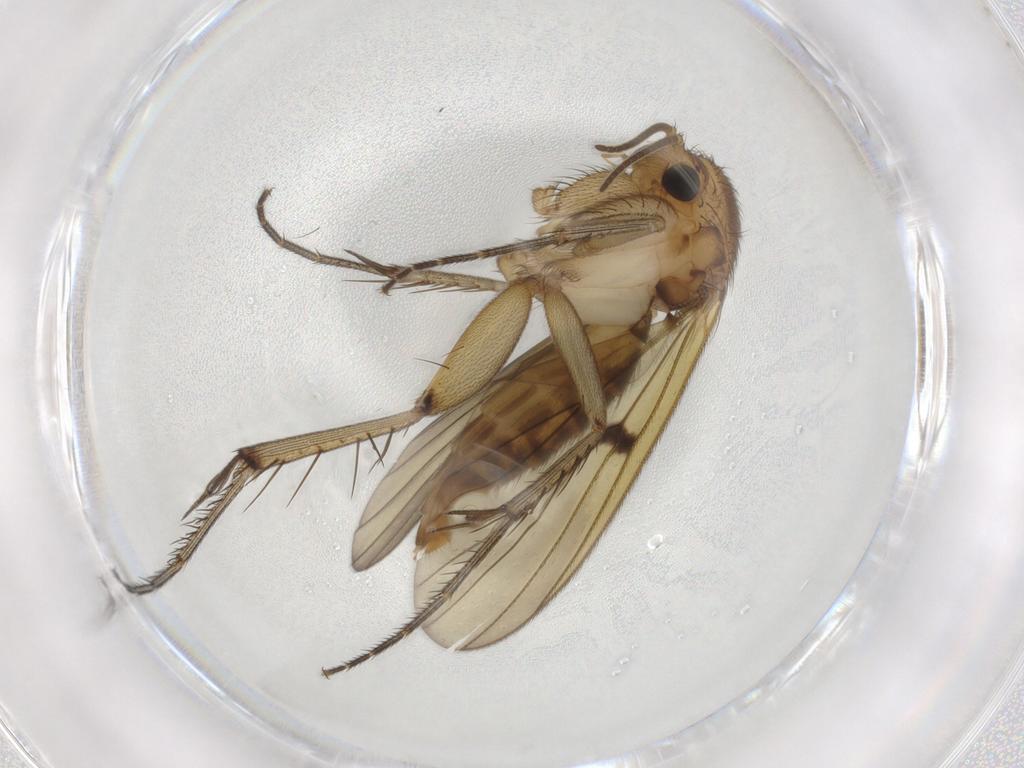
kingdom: Animalia
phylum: Arthropoda
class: Insecta
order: Diptera
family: Mycetophilidae
